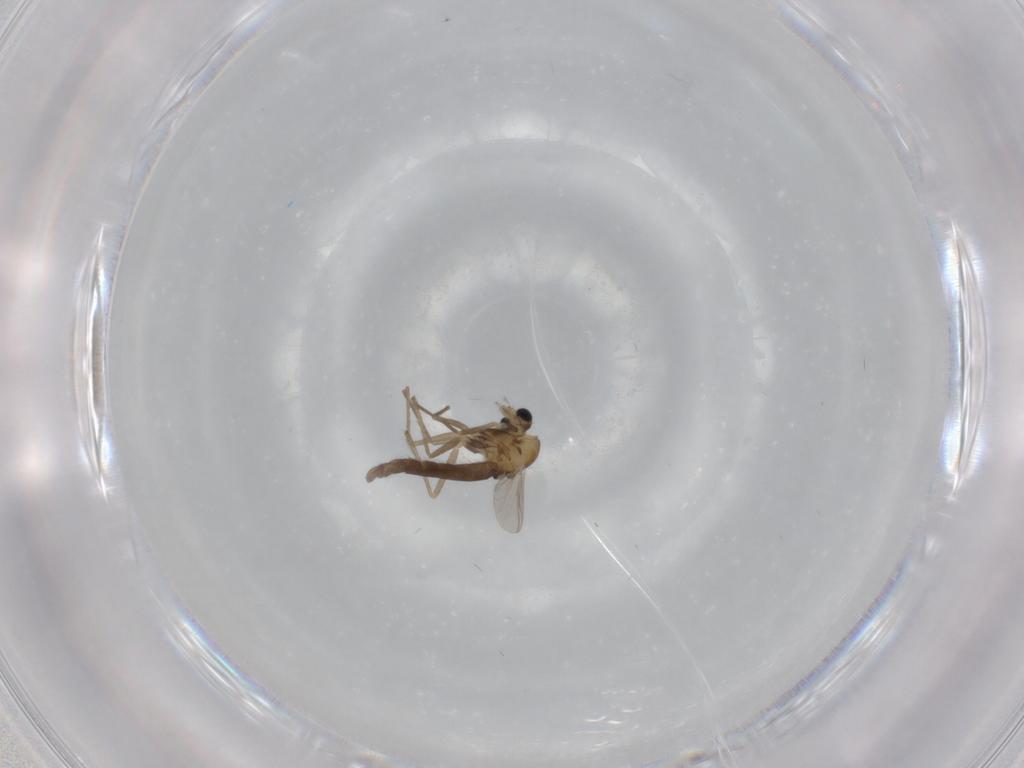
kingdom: Animalia
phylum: Arthropoda
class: Insecta
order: Diptera
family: Chironomidae
